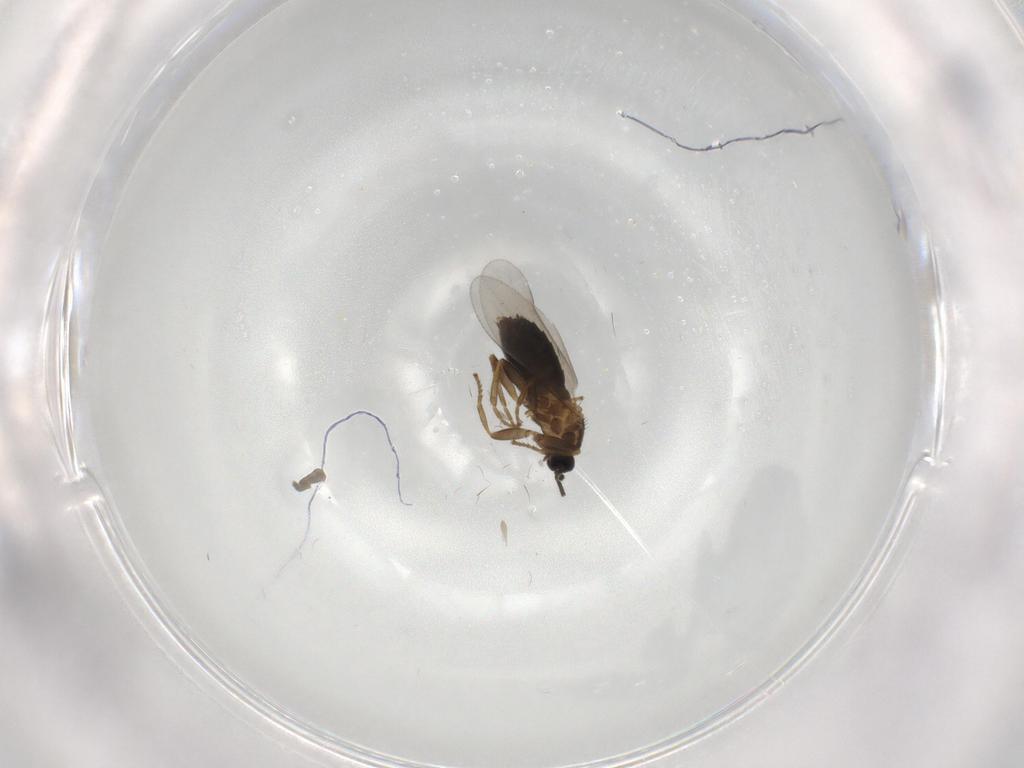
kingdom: Animalia
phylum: Arthropoda
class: Insecta
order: Diptera
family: Scatopsidae
